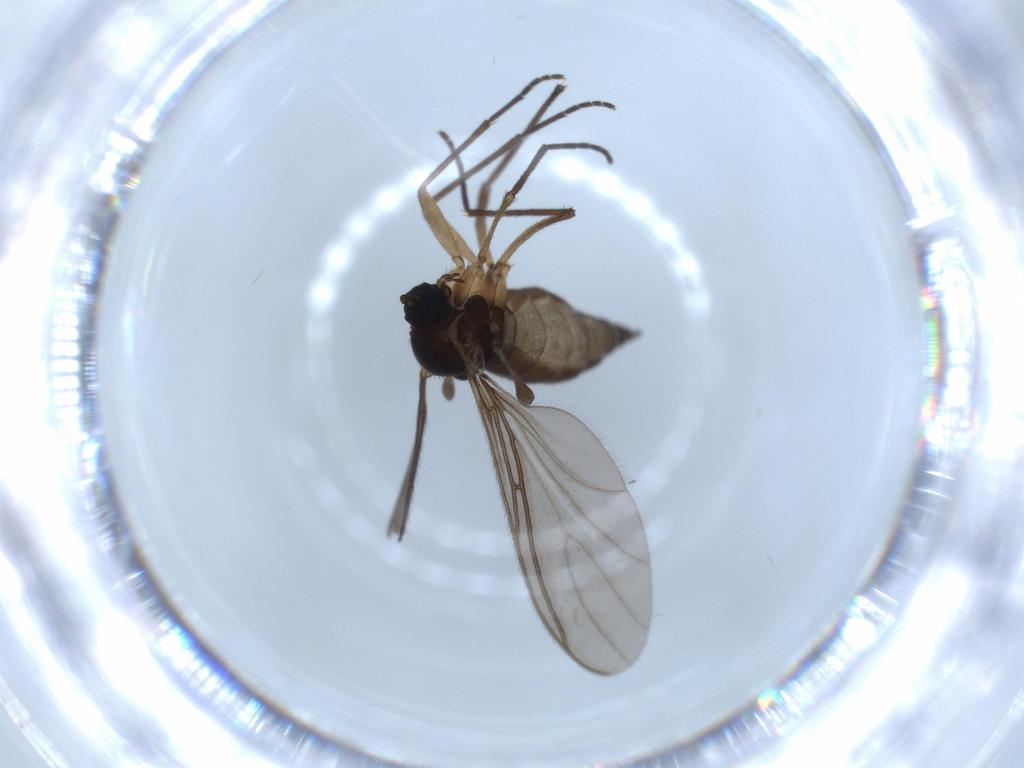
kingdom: Animalia
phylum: Arthropoda
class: Insecta
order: Diptera
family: Sciaridae
